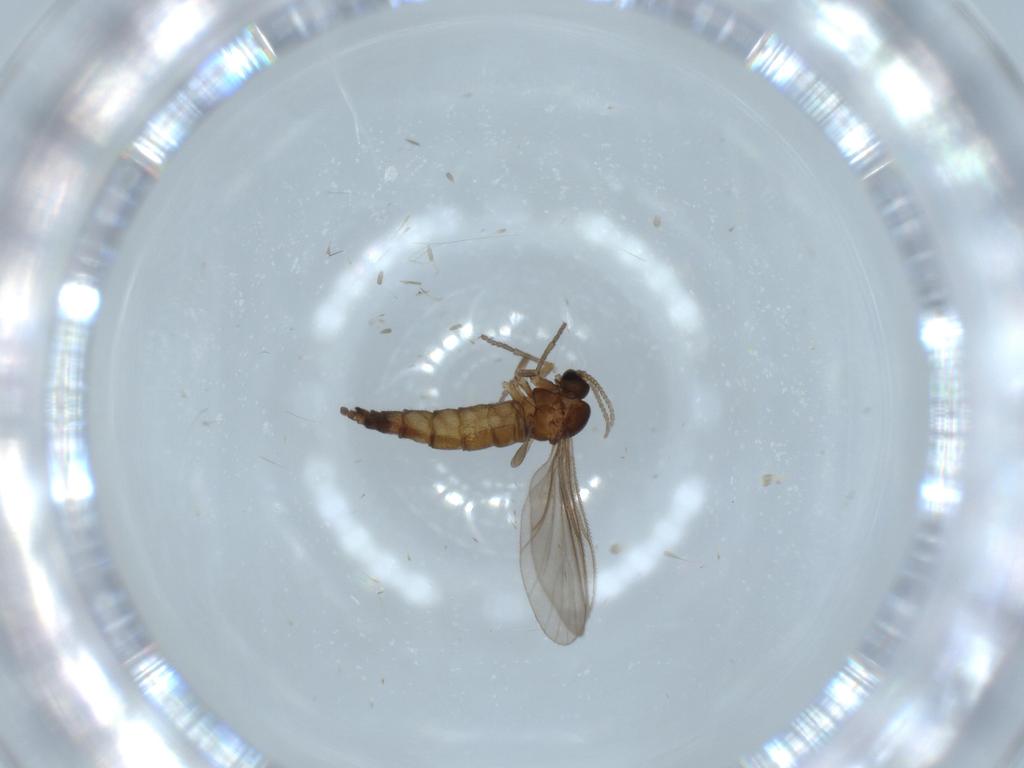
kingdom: Animalia
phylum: Arthropoda
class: Insecta
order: Diptera
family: Sciaridae
